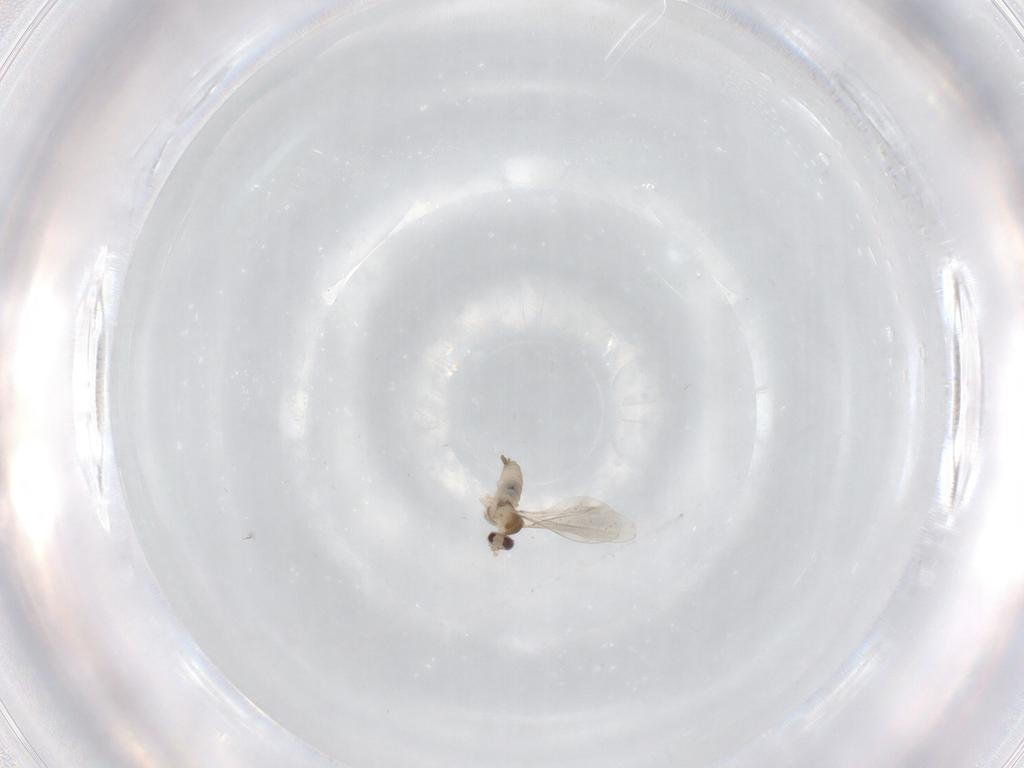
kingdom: Animalia
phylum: Arthropoda
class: Insecta
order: Diptera
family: Cecidomyiidae
